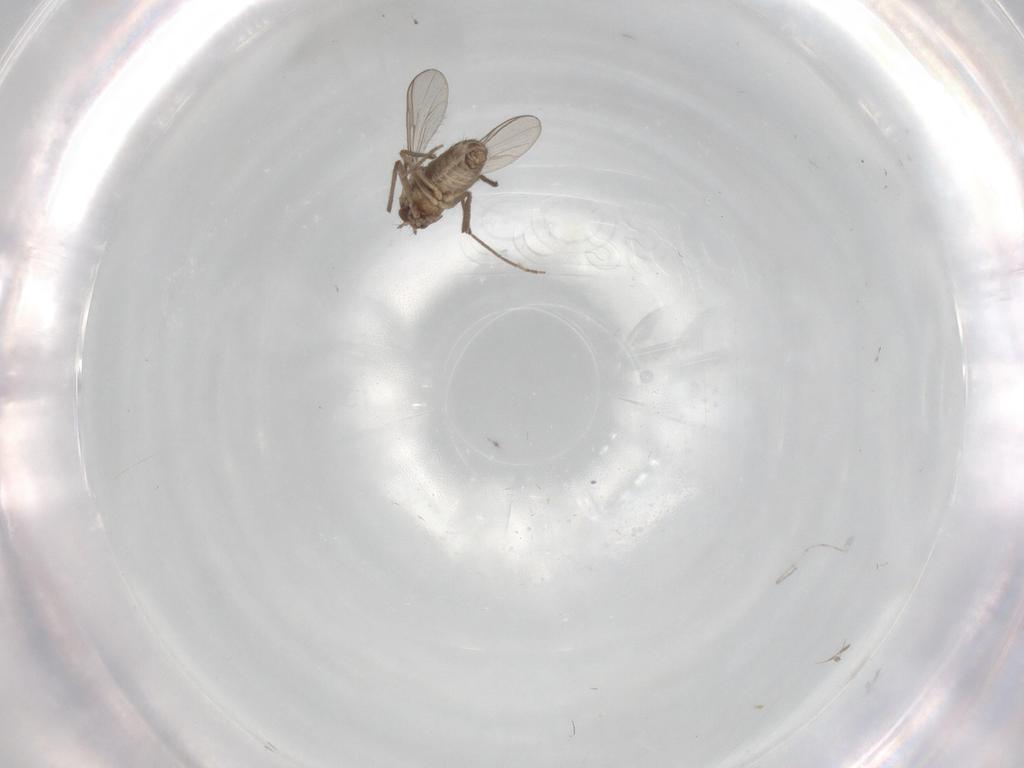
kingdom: Animalia
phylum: Arthropoda
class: Insecta
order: Diptera
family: Chironomidae
